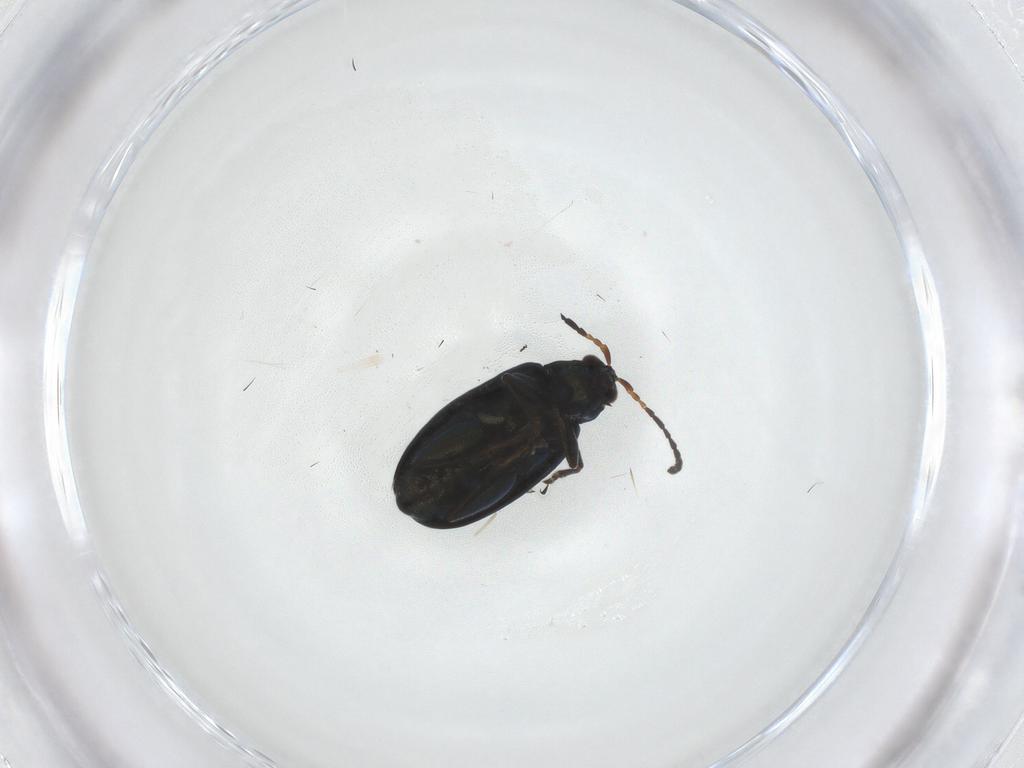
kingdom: Animalia
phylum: Arthropoda
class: Insecta
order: Coleoptera
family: Chrysomelidae
